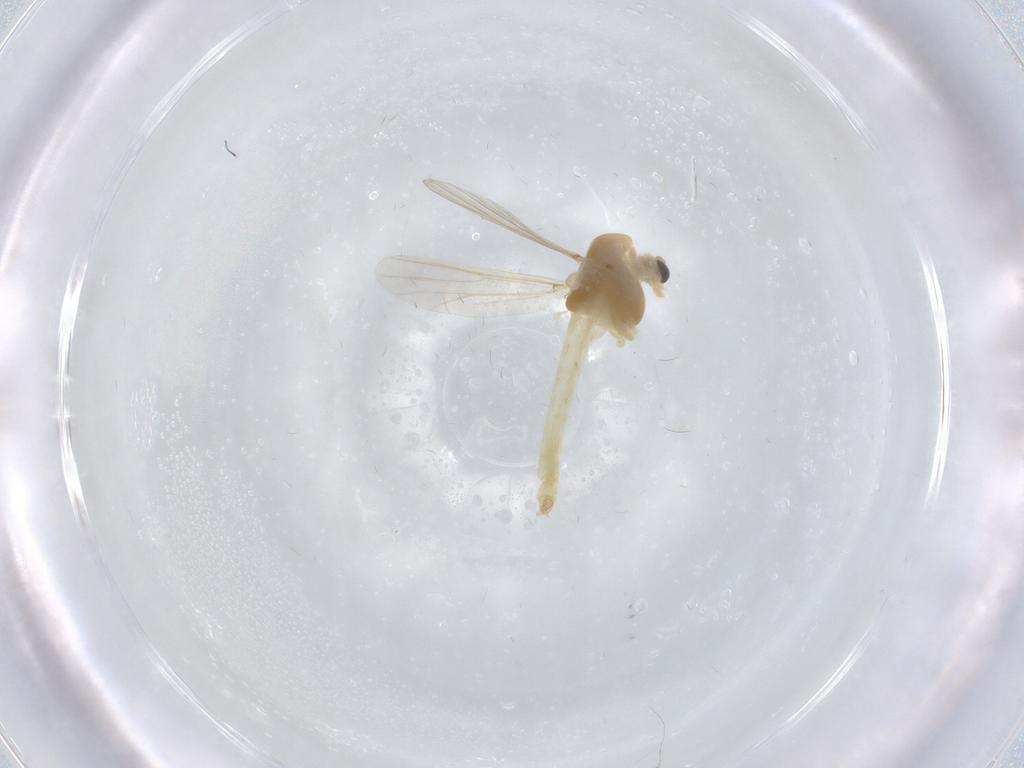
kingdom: Animalia
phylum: Arthropoda
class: Insecta
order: Diptera
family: Chironomidae
